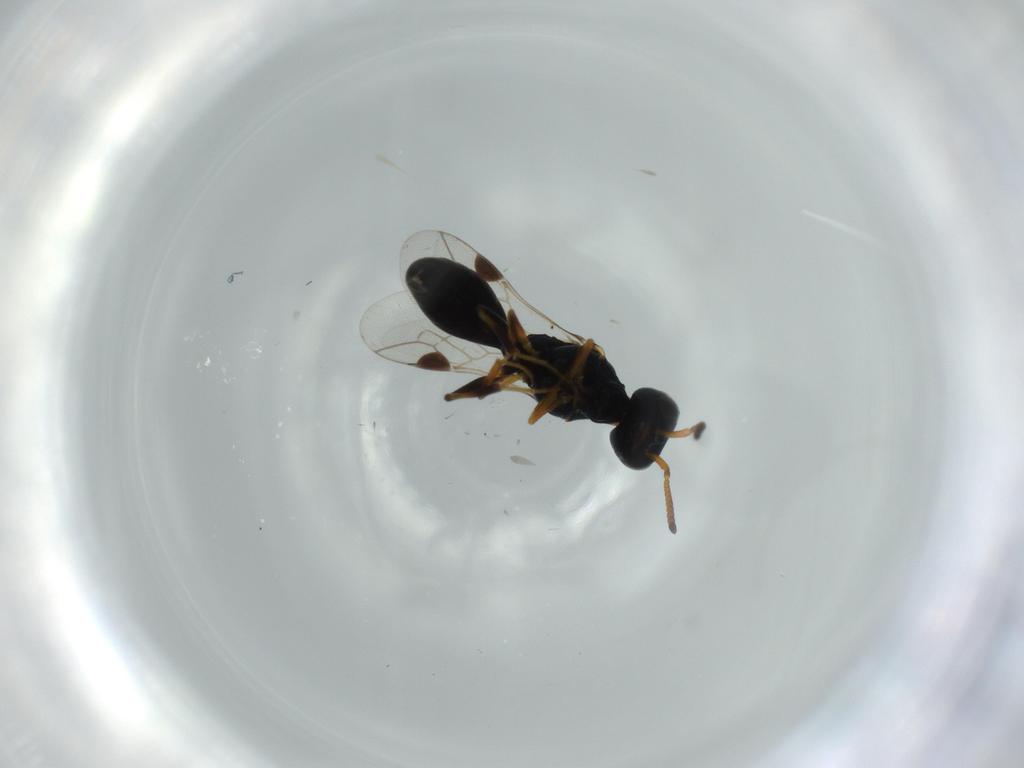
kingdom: Animalia
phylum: Arthropoda
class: Insecta
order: Hymenoptera
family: Pemphredonidae
